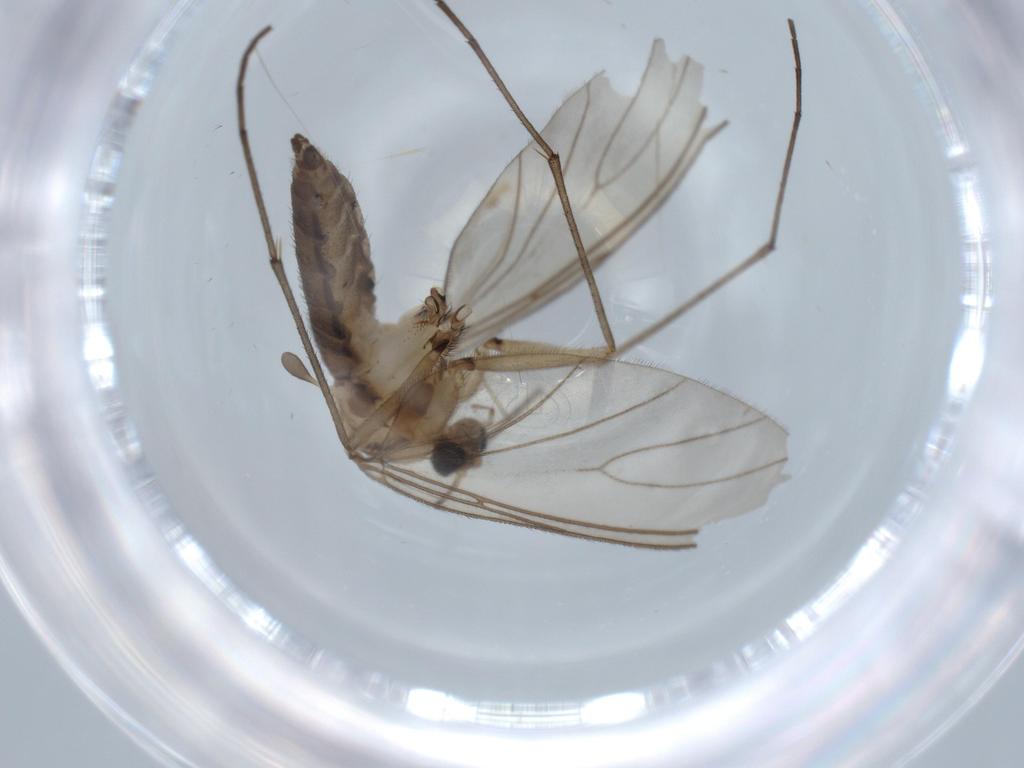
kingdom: Animalia
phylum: Arthropoda
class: Insecta
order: Diptera
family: Sciaridae
